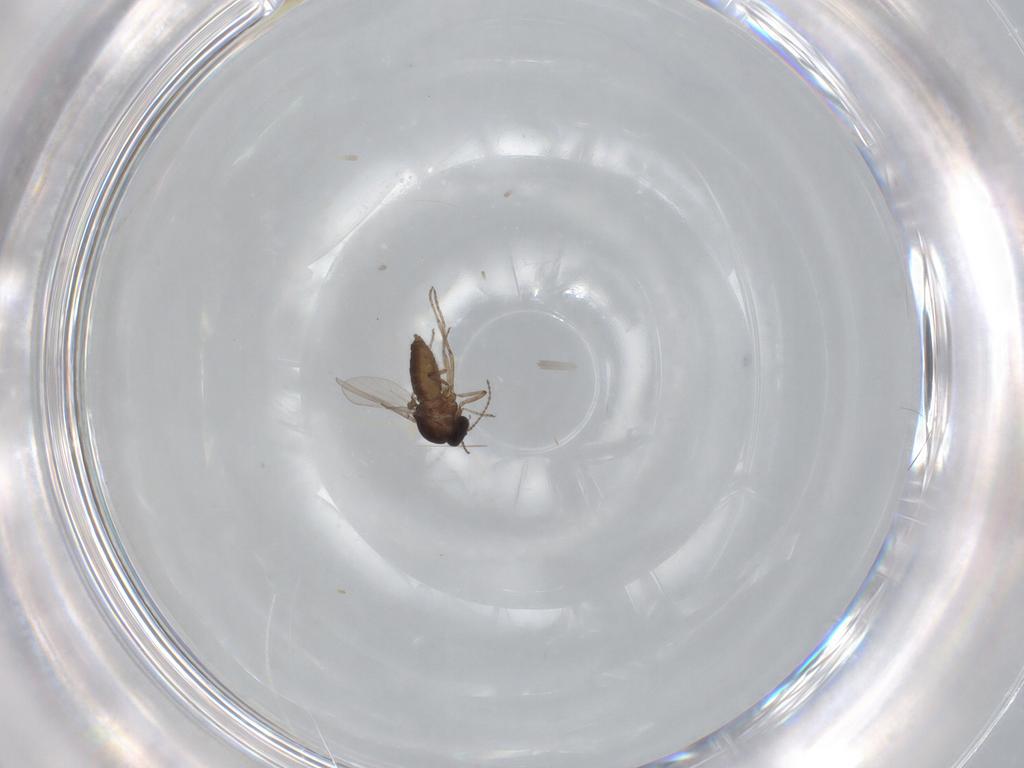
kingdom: Animalia
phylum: Arthropoda
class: Insecta
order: Diptera
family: Ceratopogonidae
